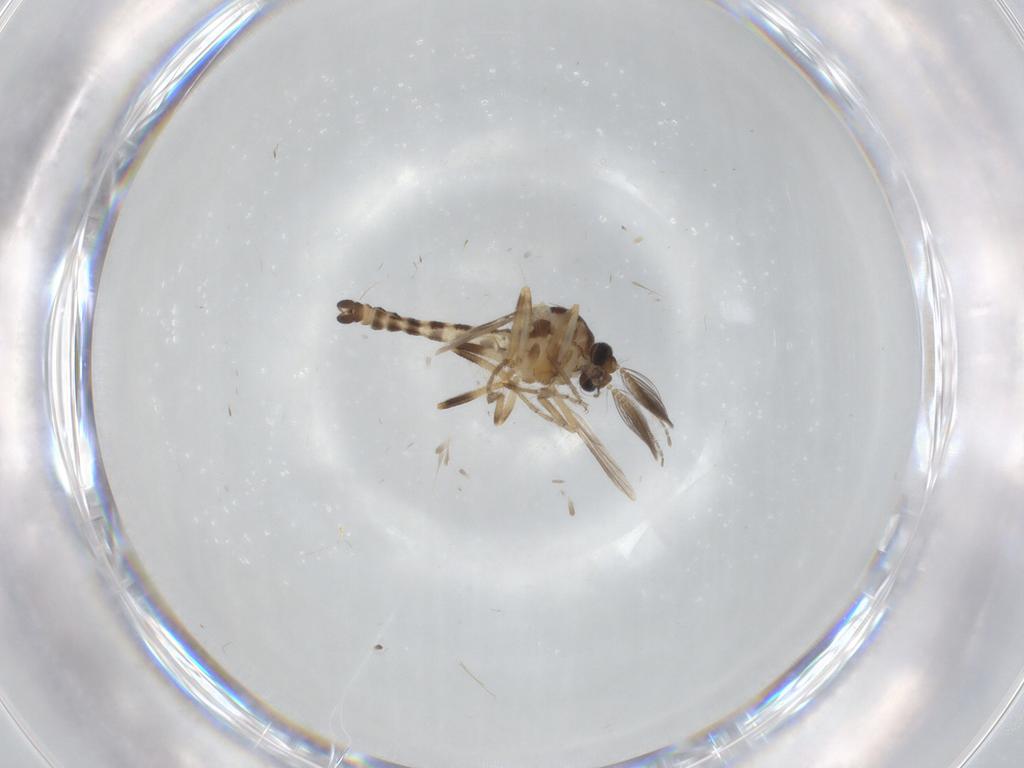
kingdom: Animalia
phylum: Arthropoda
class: Insecta
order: Diptera
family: Ceratopogonidae
